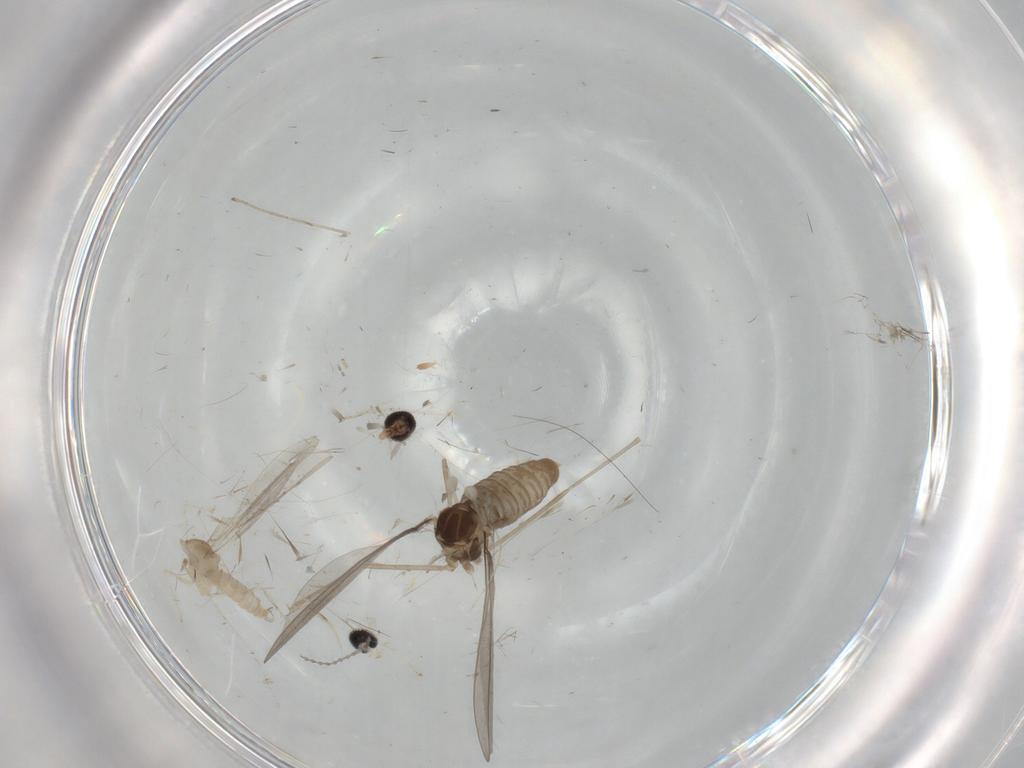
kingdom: Animalia
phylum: Arthropoda
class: Insecta
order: Diptera
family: Cecidomyiidae
